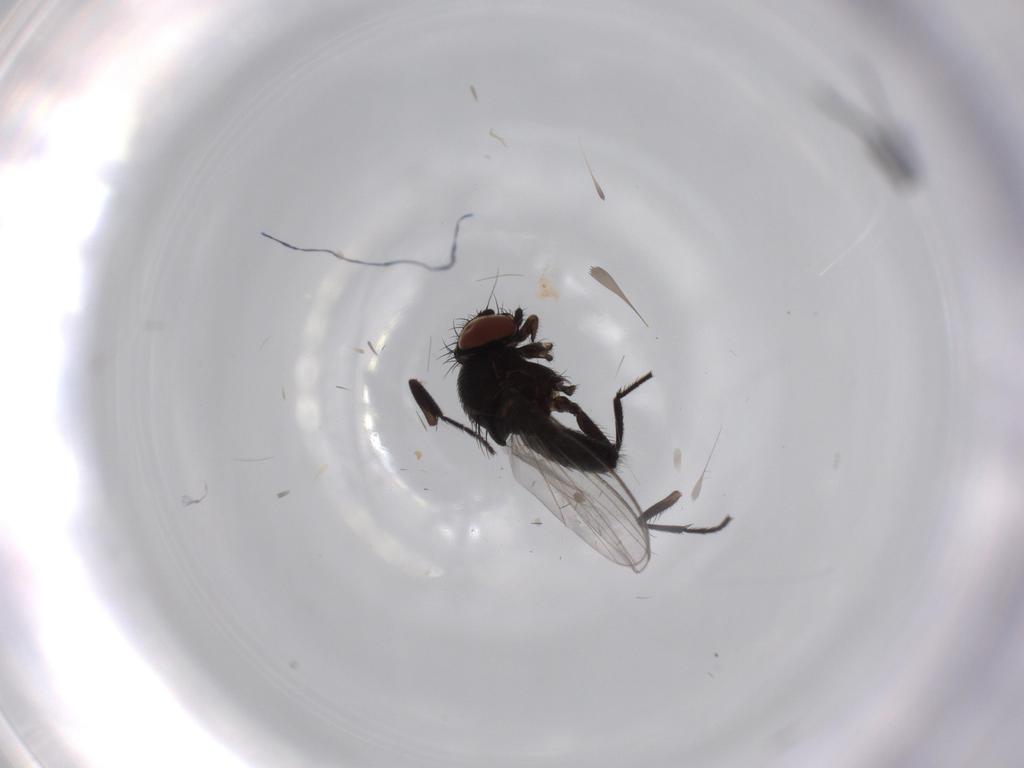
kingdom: Animalia
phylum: Arthropoda
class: Insecta
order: Diptera
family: Milichiidae
